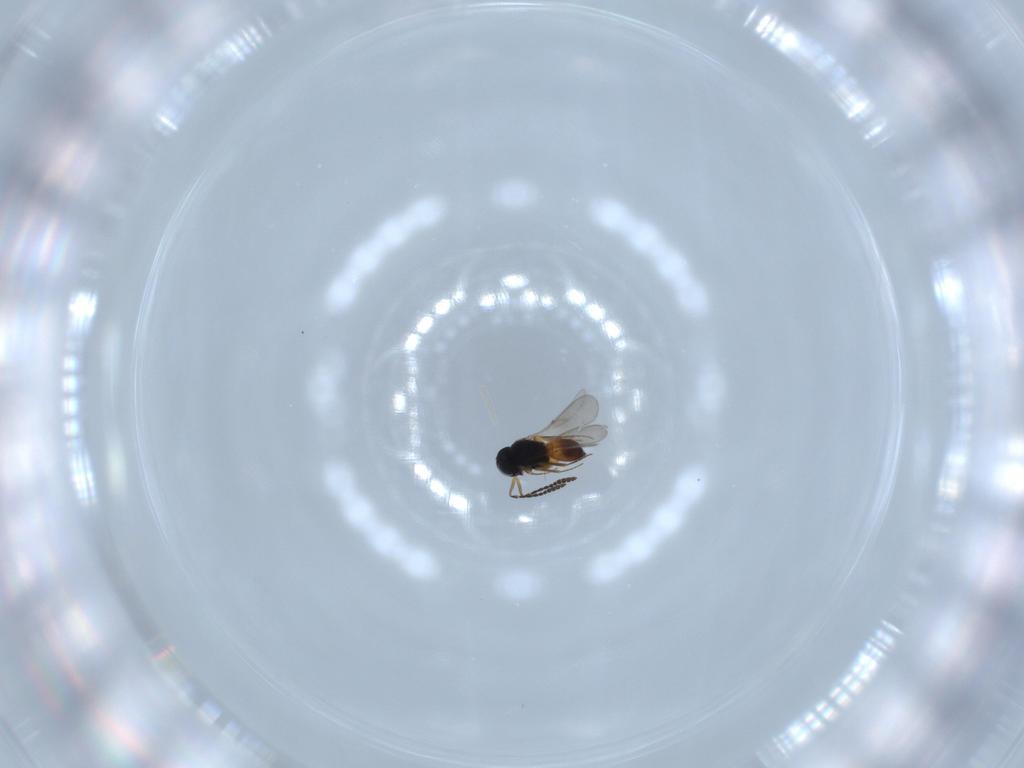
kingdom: Animalia
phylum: Arthropoda
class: Insecta
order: Hymenoptera
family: Scelionidae
